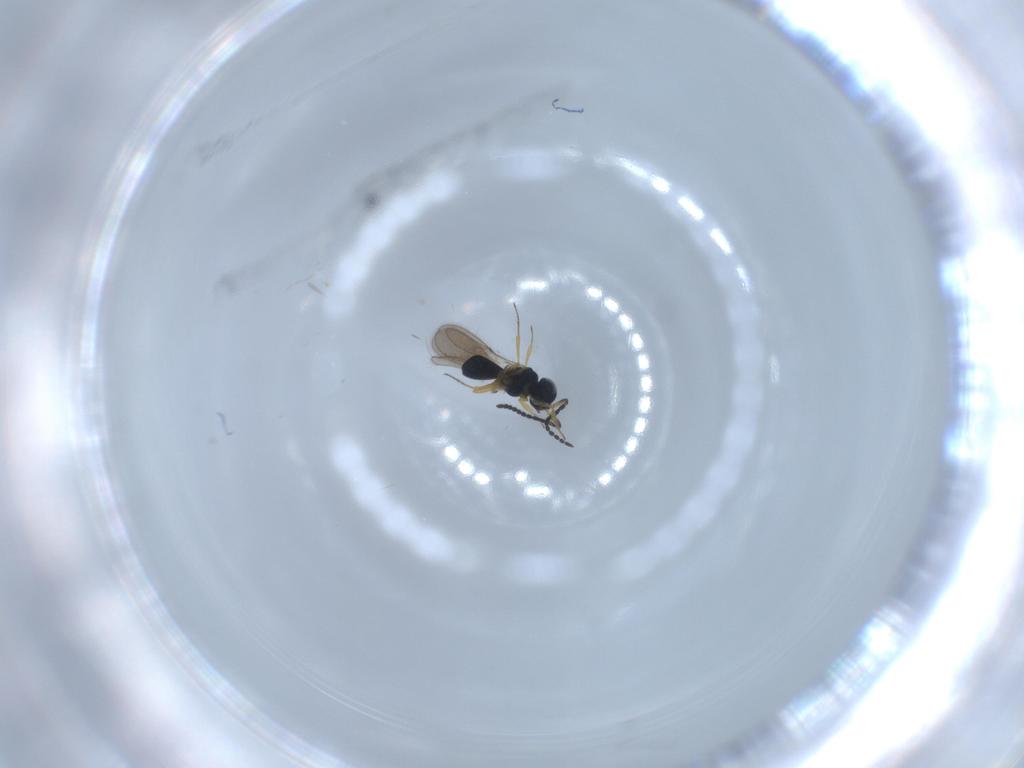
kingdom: Animalia
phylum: Arthropoda
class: Insecta
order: Hymenoptera
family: Scelionidae
